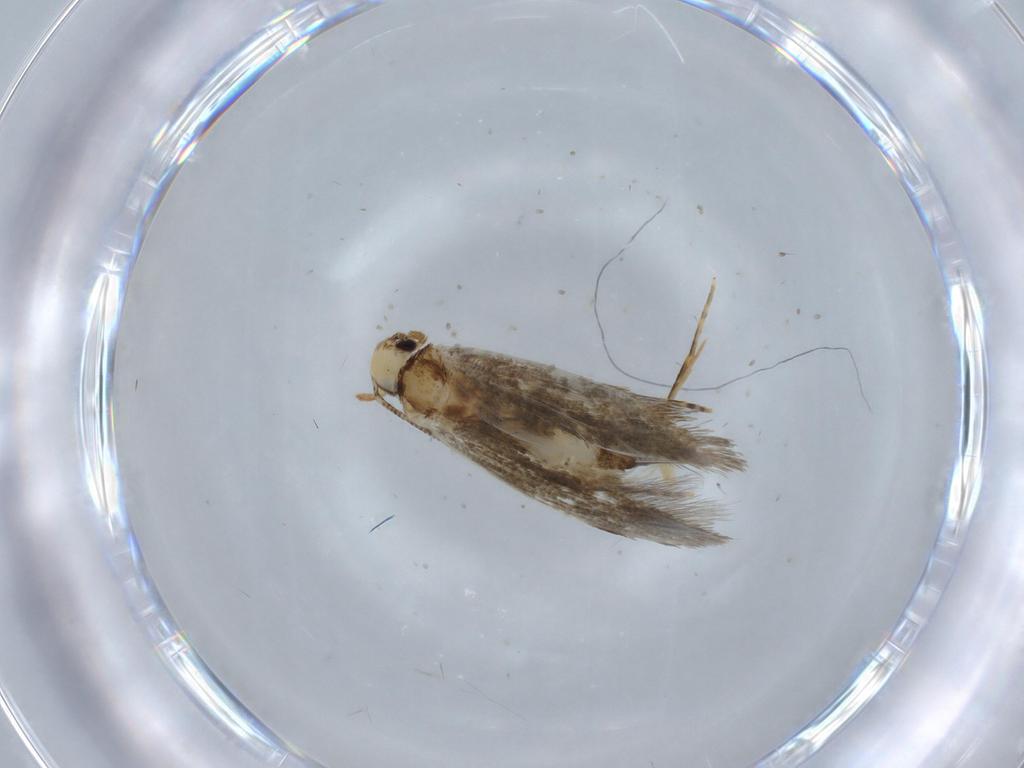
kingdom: Animalia
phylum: Arthropoda
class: Insecta
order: Lepidoptera
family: Tineidae
